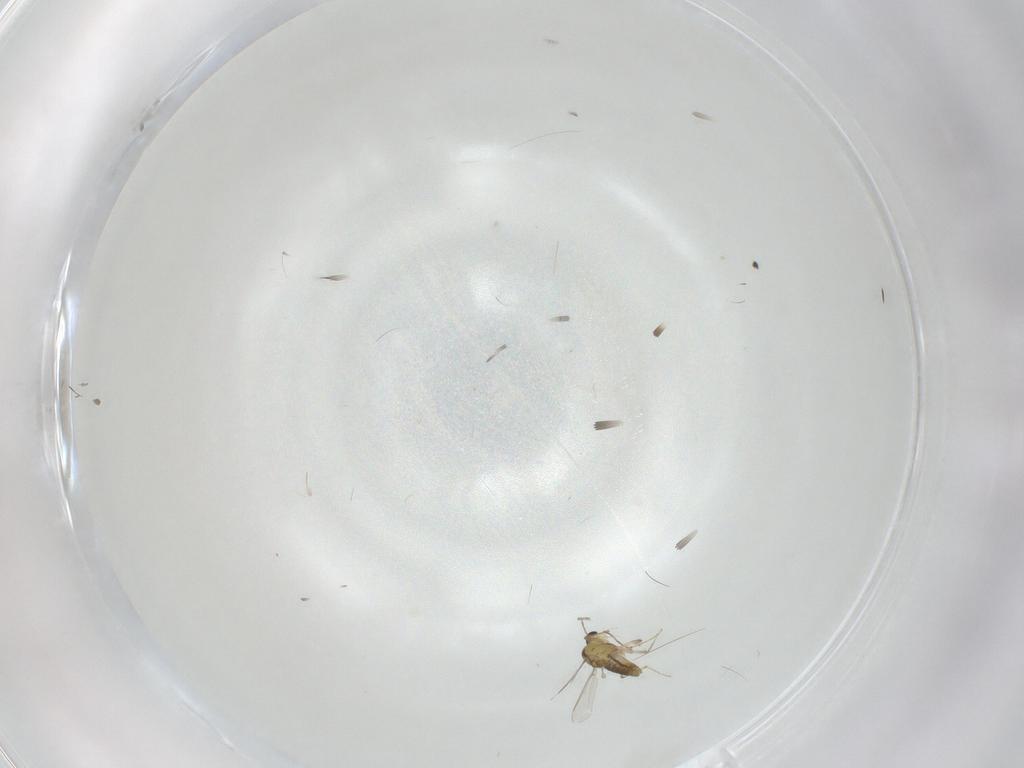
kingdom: Animalia
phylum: Arthropoda
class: Insecta
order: Diptera
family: Chironomidae
